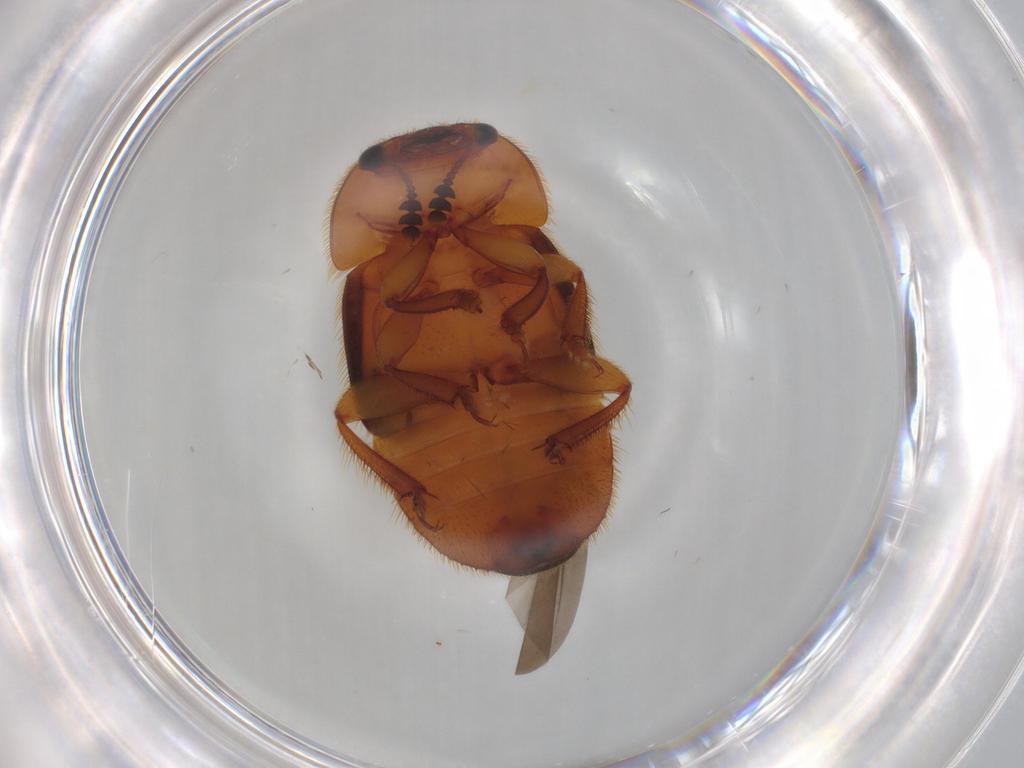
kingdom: Animalia
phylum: Arthropoda
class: Insecta
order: Coleoptera
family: Nitidulidae
